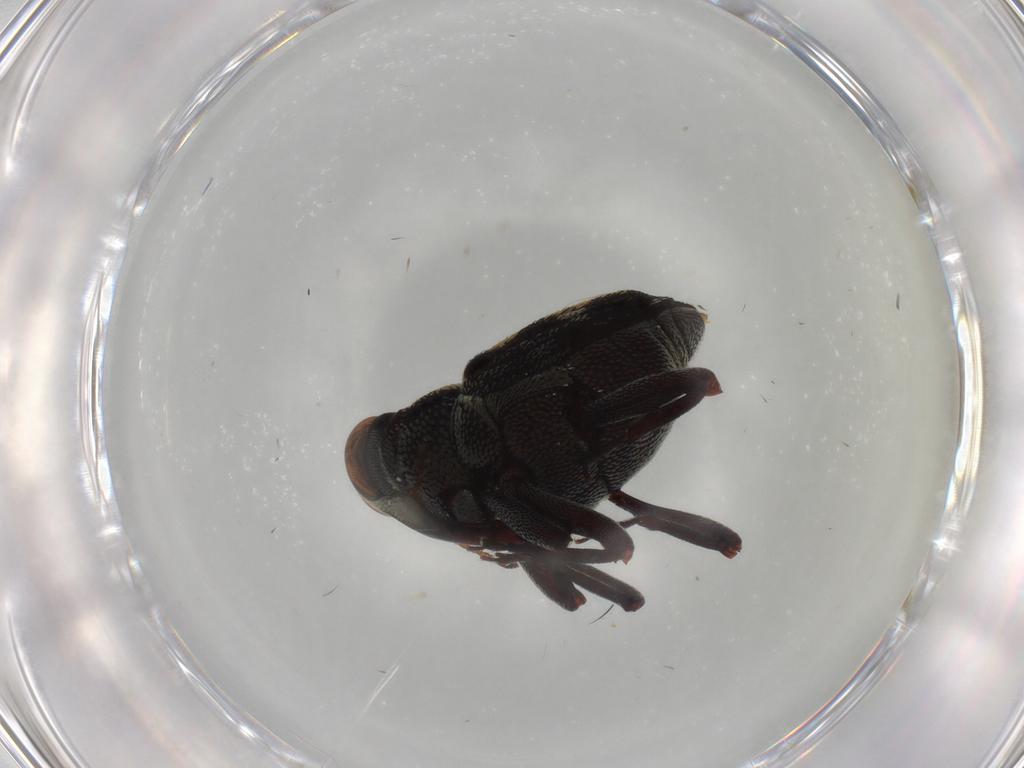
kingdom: Animalia
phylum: Arthropoda
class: Insecta
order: Coleoptera
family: Curculionidae
